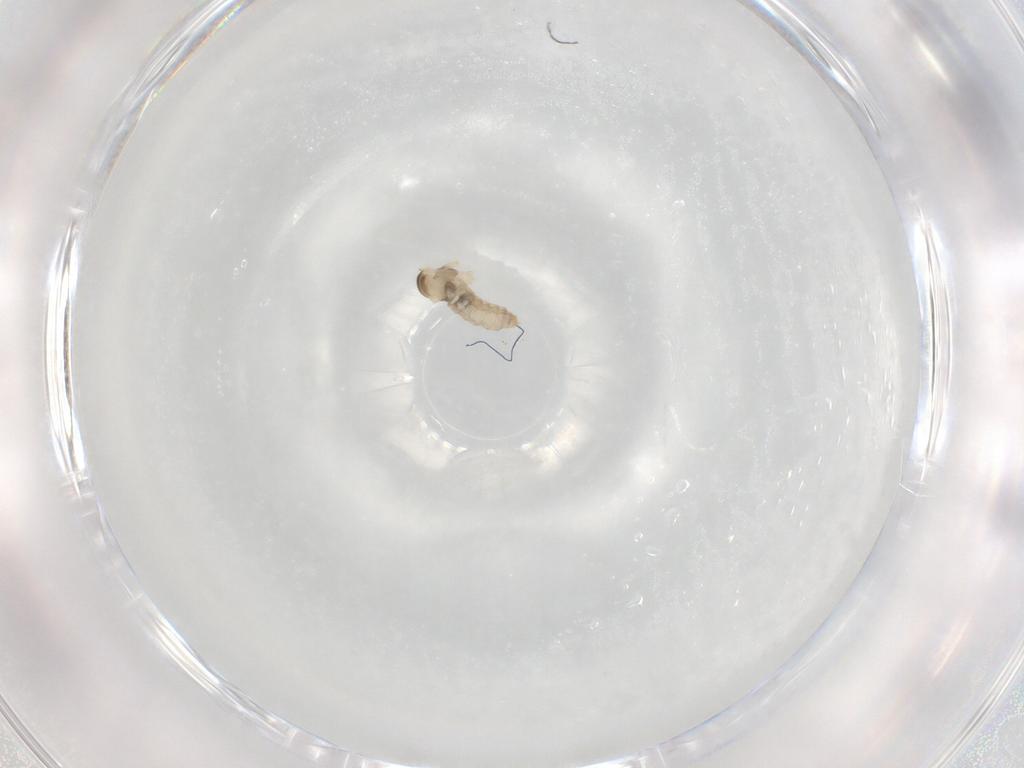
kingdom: Animalia
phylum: Arthropoda
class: Insecta
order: Diptera
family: Cecidomyiidae
